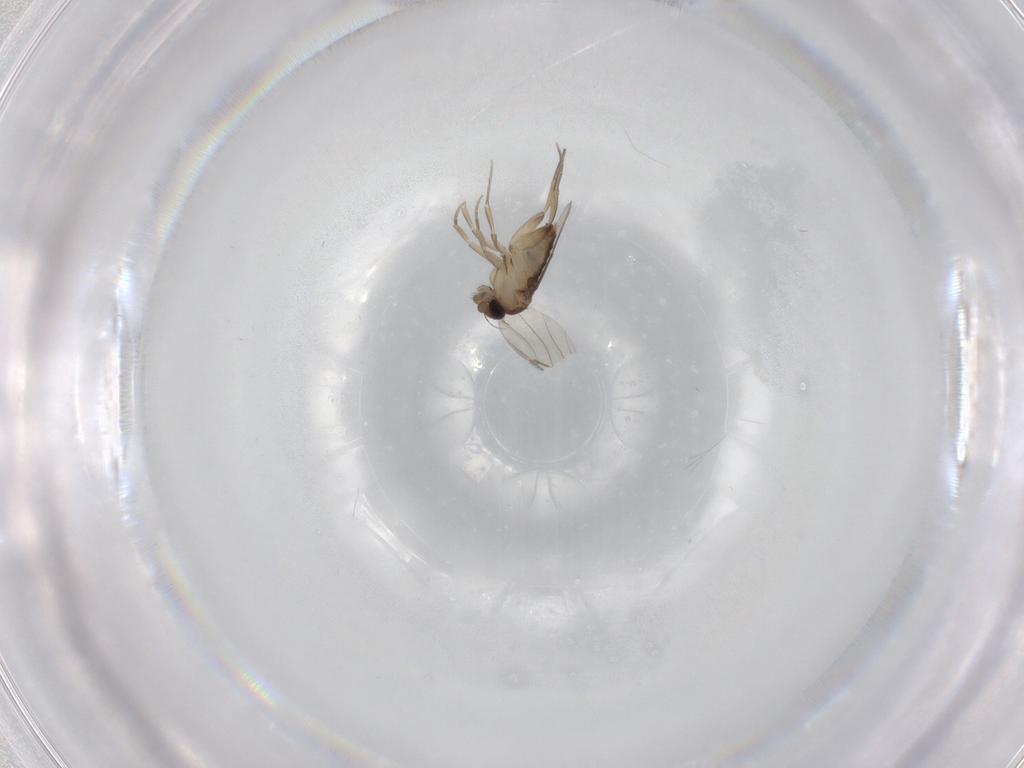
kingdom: Animalia
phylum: Arthropoda
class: Insecta
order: Diptera
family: Phoridae
